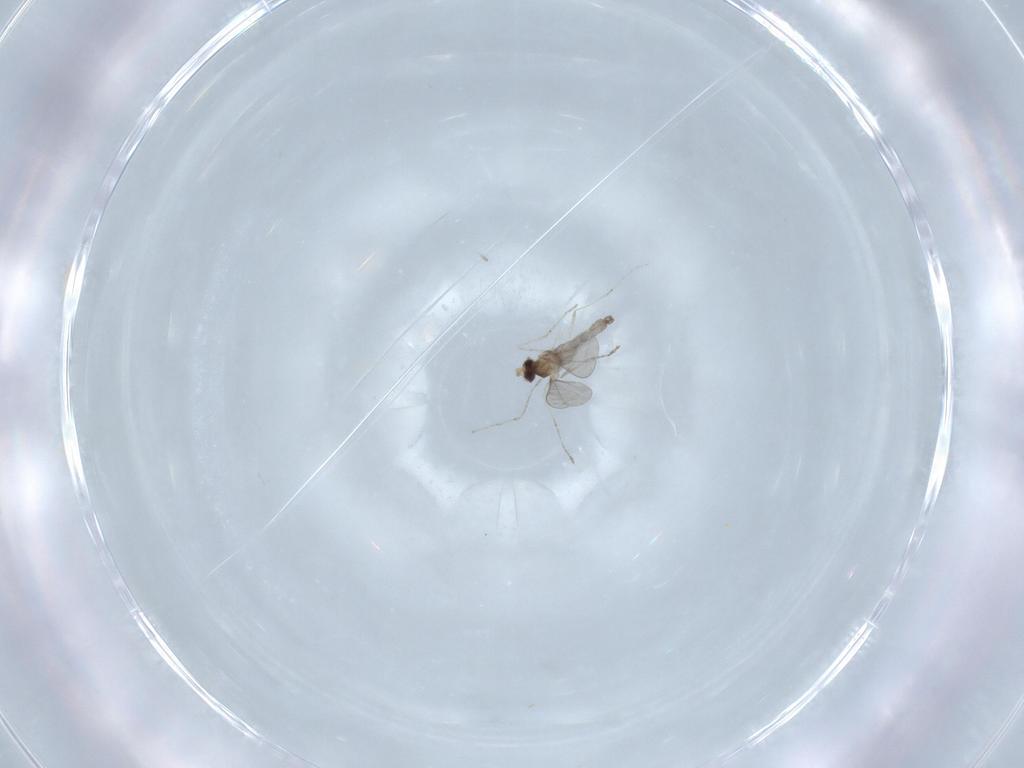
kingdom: Animalia
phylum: Arthropoda
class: Insecta
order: Diptera
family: Cecidomyiidae
